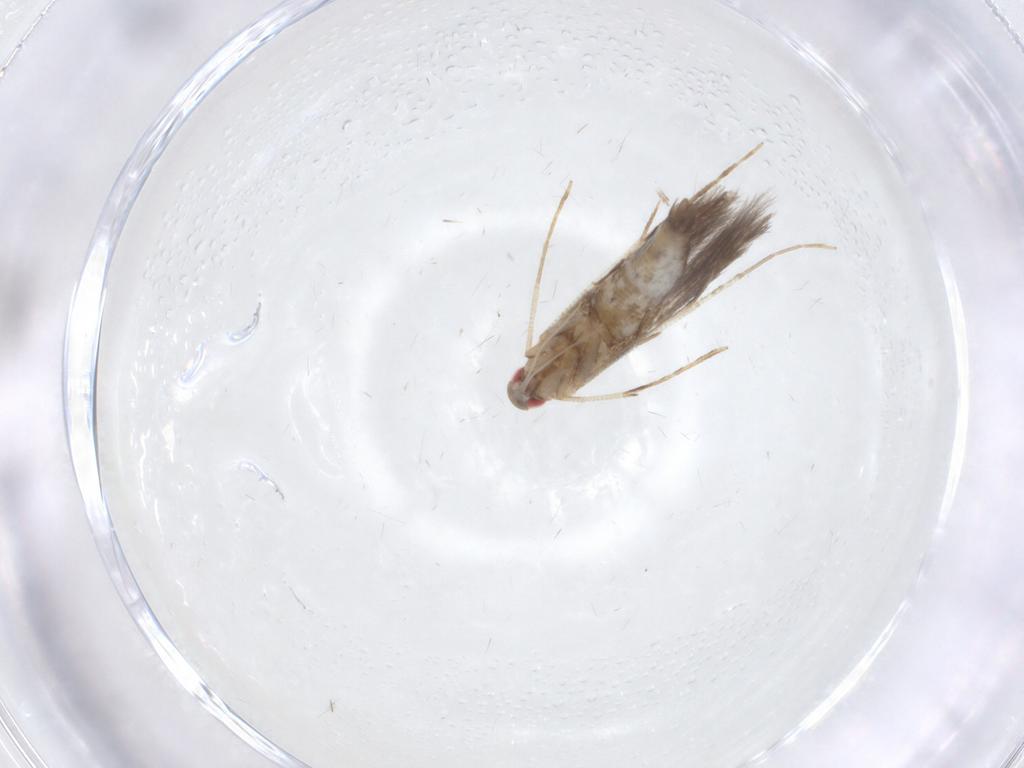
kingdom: Animalia
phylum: Arthropoda
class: Insecta
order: Lepidoptera
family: Cosmopterigidae
